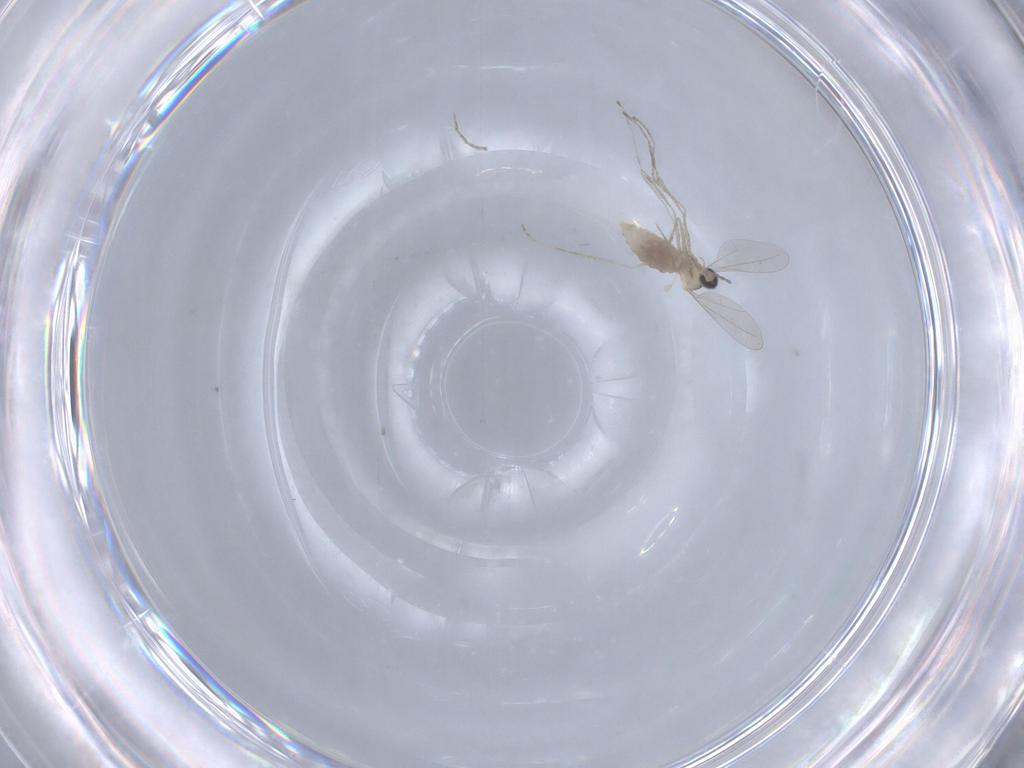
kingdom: Animalia
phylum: Arthropoda
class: Insecta
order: Diptera
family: Cecidomyiidae
